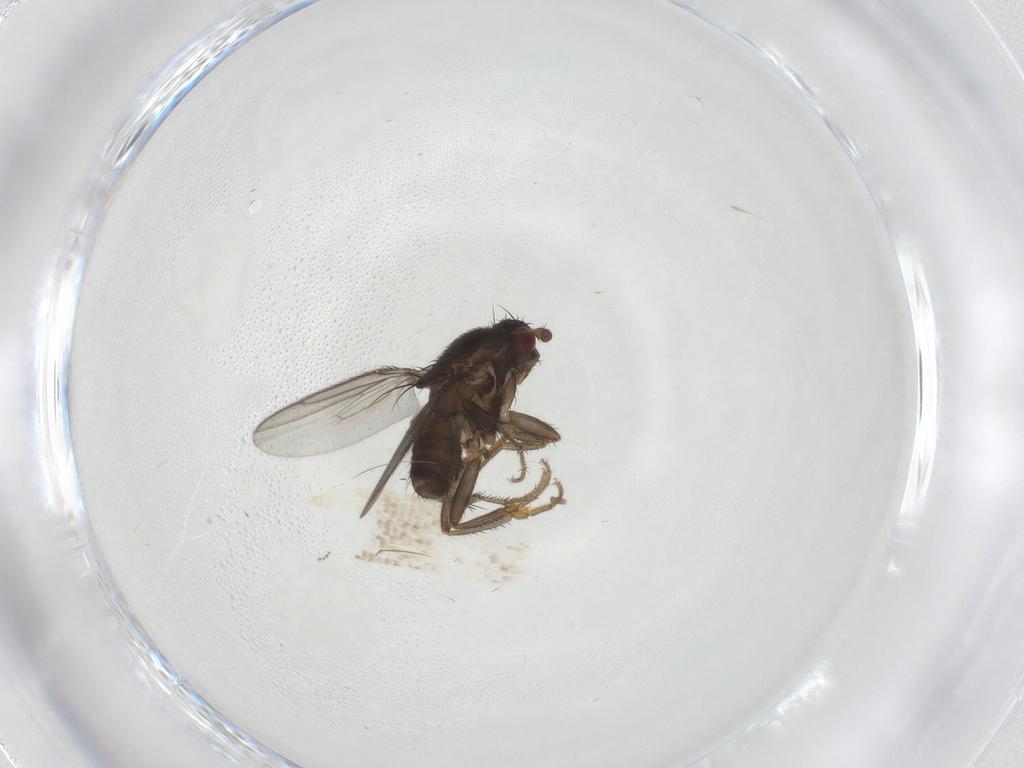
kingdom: Animalia
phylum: Arthropoda
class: Insecta
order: Diptera
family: Sphaeroceridae
